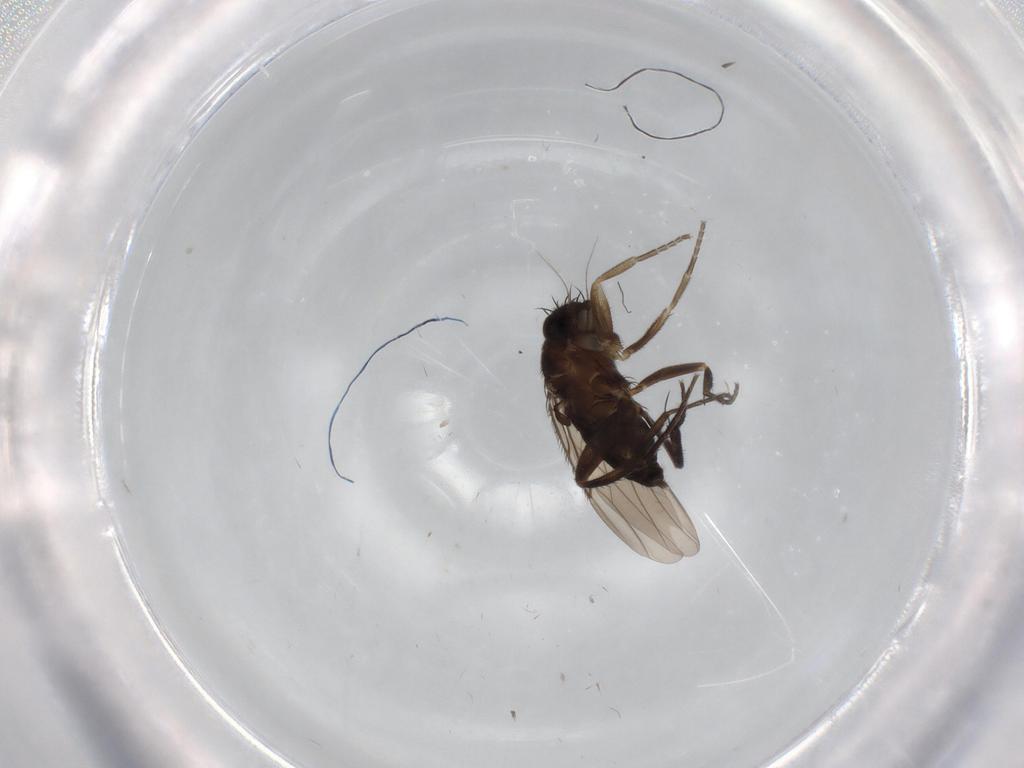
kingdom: Animalia
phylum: Arthropoda
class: Insecta
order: Diptera
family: Phoridae
